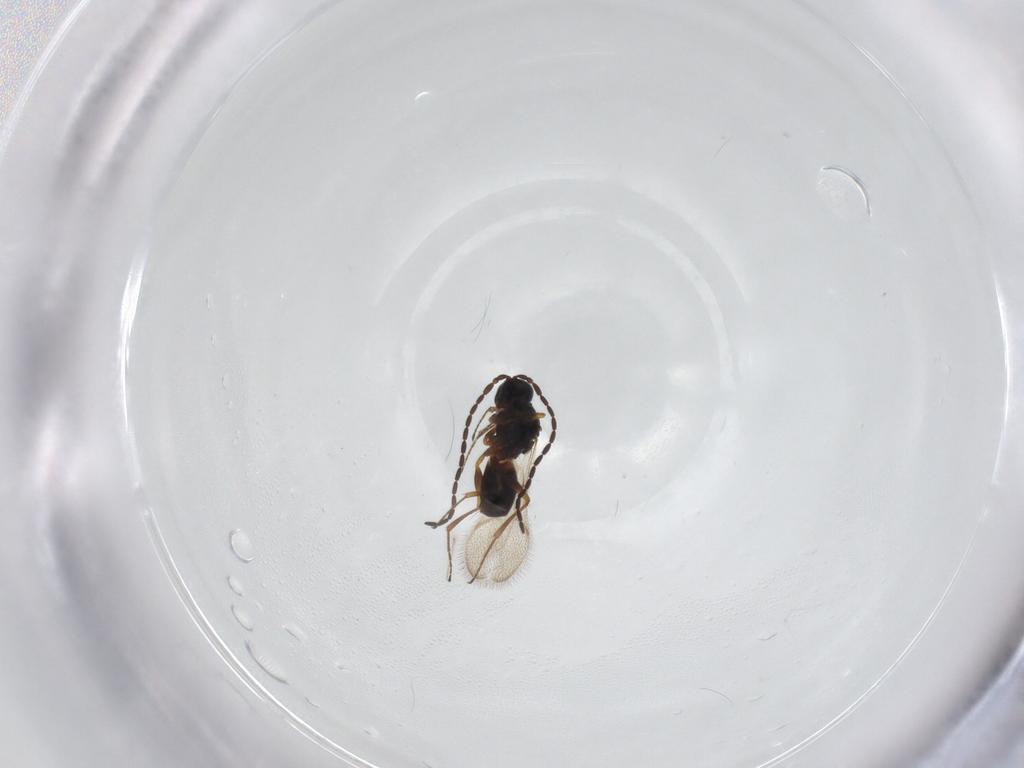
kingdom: Animalia
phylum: Arthropoda
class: Insecta
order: Hymenoptera
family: Figitidae
